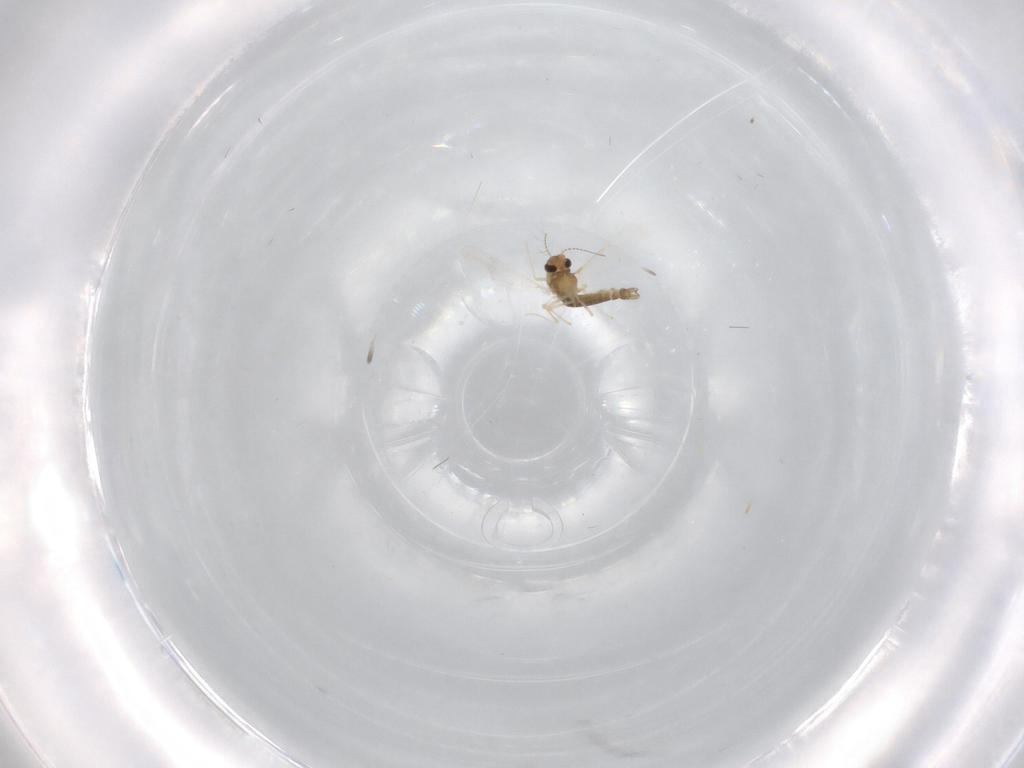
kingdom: Animalia
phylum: Arthropoda
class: Insecta
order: Diptera
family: Chironomidae
